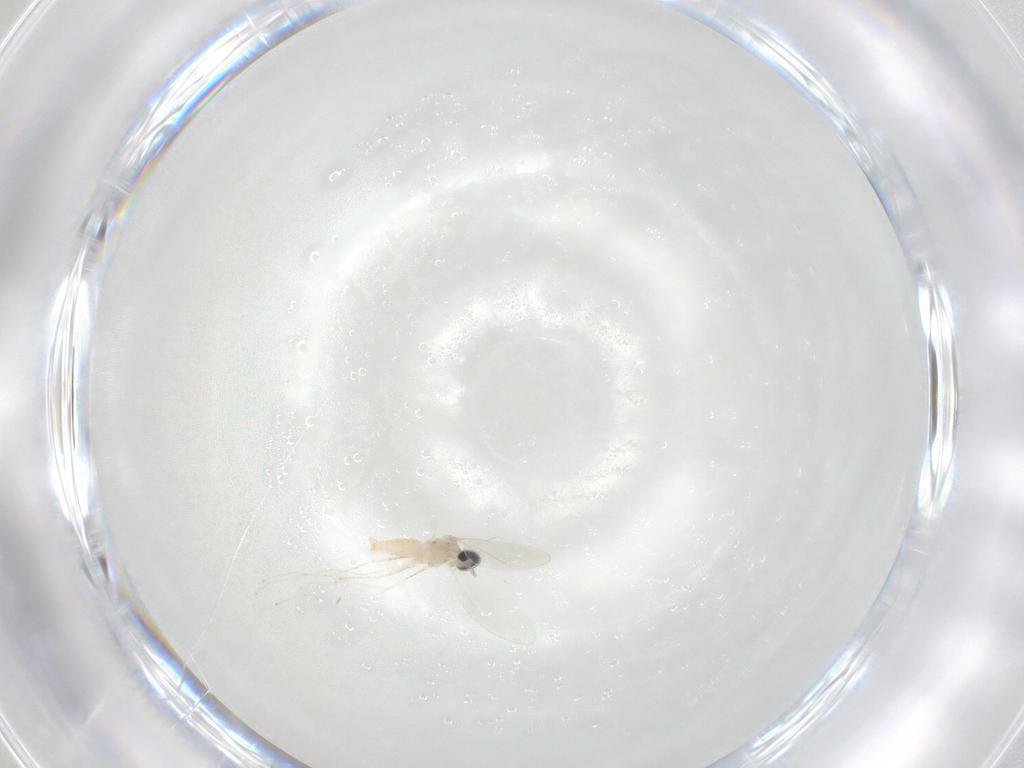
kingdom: Animalia
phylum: Arthropoda
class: Insecta
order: Diptera
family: Cecidomyiidae
